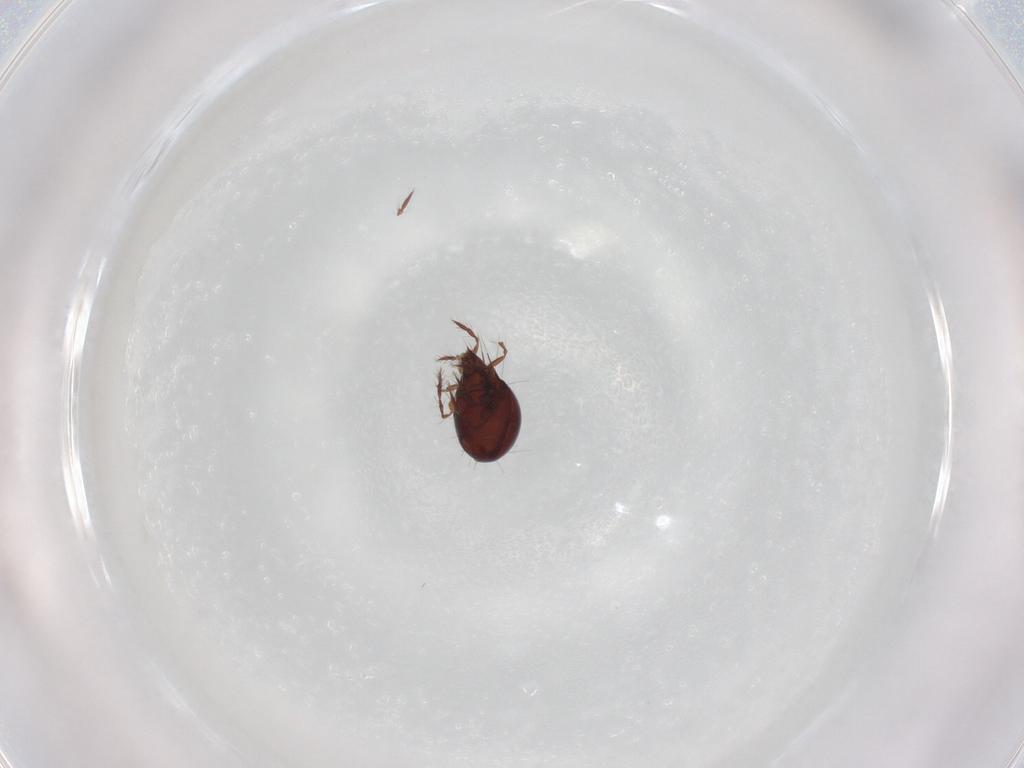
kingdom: Animalia
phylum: Arthropoda
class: Arachnida
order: Sarcoptiformes
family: Ceratoppiidae
